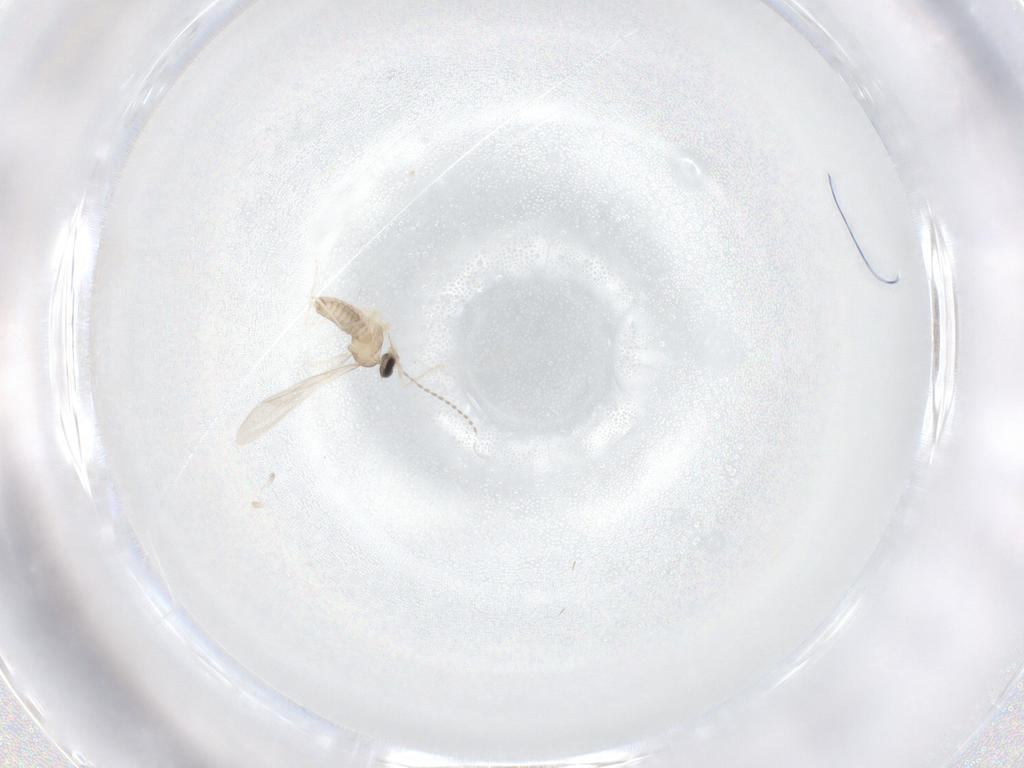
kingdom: Animalia
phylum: Arthropoda
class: Insecta
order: Diptera
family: Cecidomyiidae
